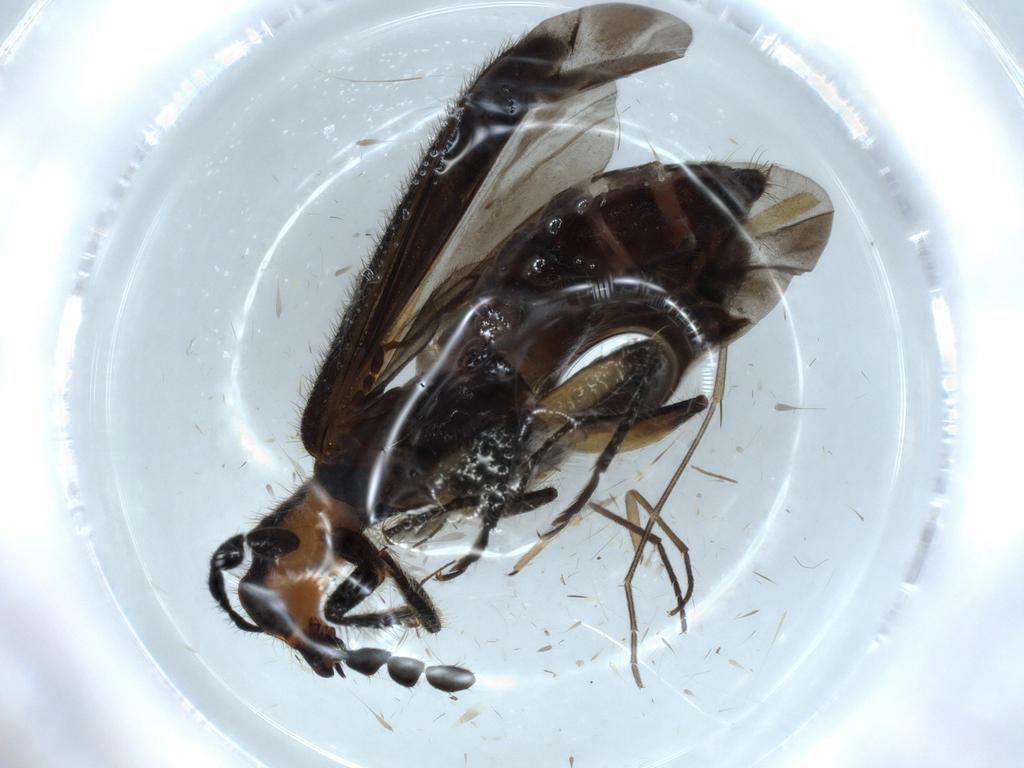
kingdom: Animalia
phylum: Arthropoda
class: Insecta
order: Coleoptera
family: Cleridae
